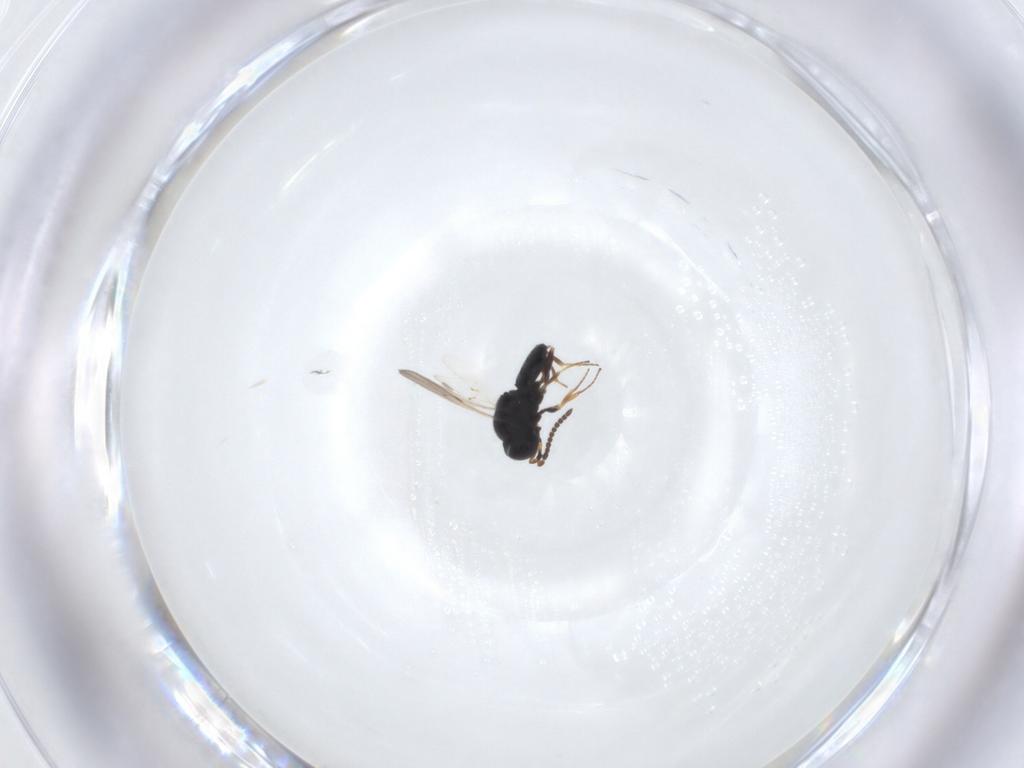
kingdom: Animalia
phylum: Arthropoda
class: Insecta
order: Hymenoptera
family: Scelionidae
